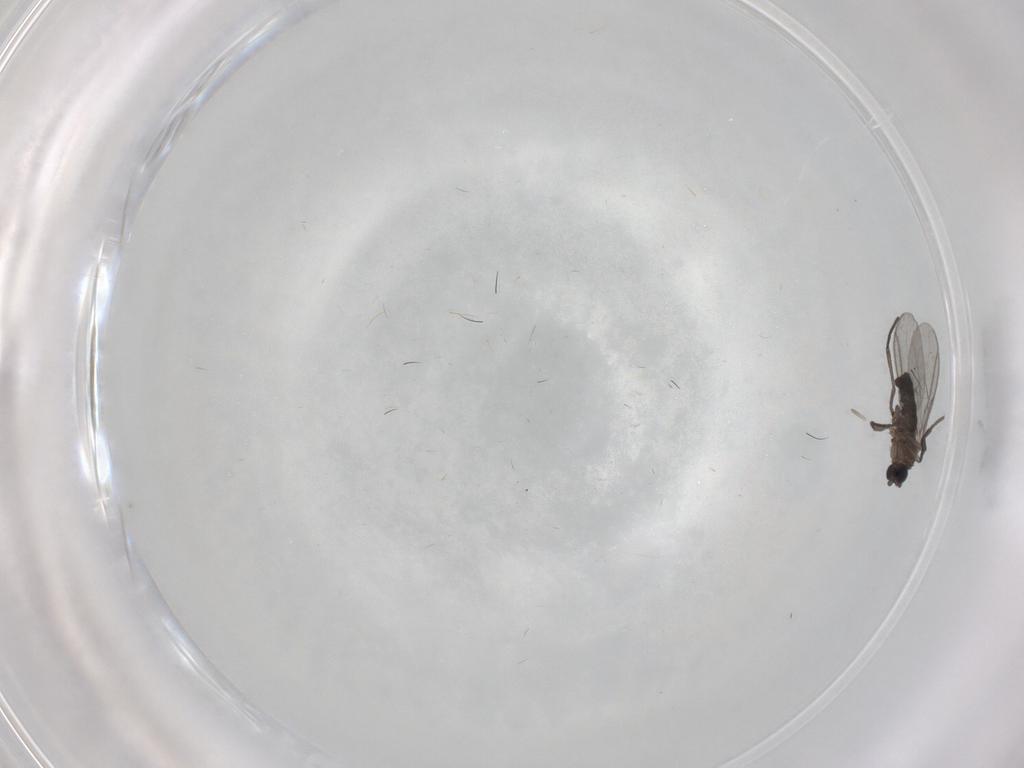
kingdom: Animalia
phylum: Arthropoda
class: Insecta
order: Diptera
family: Sciaridae
